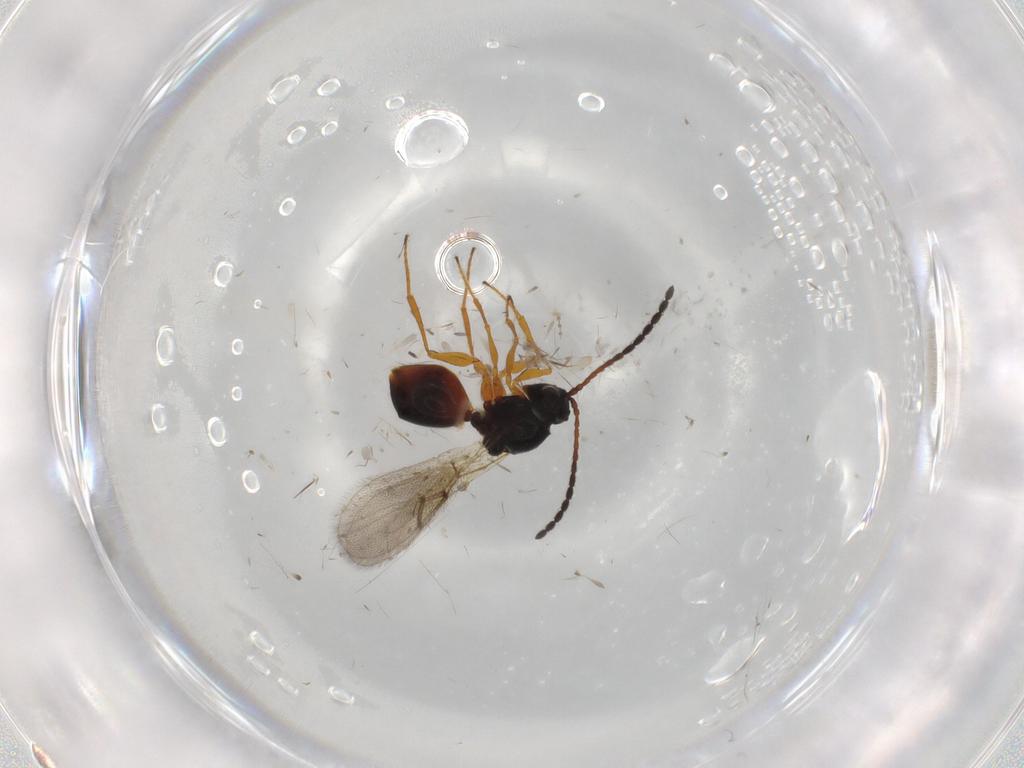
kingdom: Animalia
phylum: Arthropoda
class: Insecta
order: Hymenoptera
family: Figitidae
